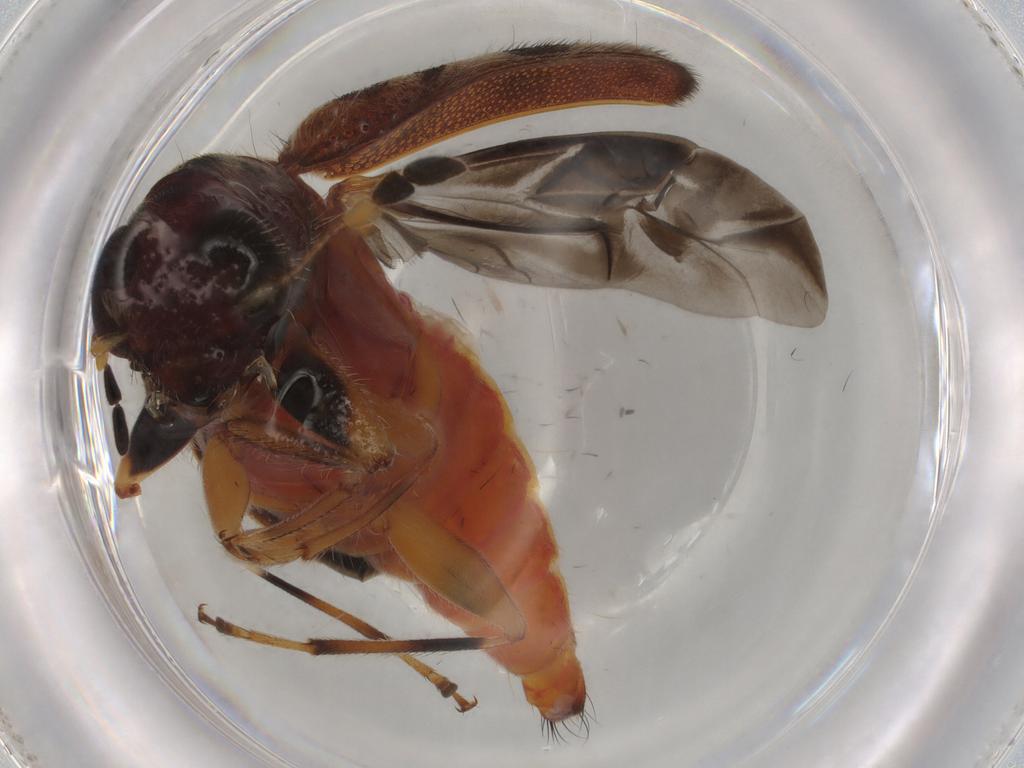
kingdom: Animalia
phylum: Arthropoda
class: Insecta
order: Coleoptera
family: Cleridae
